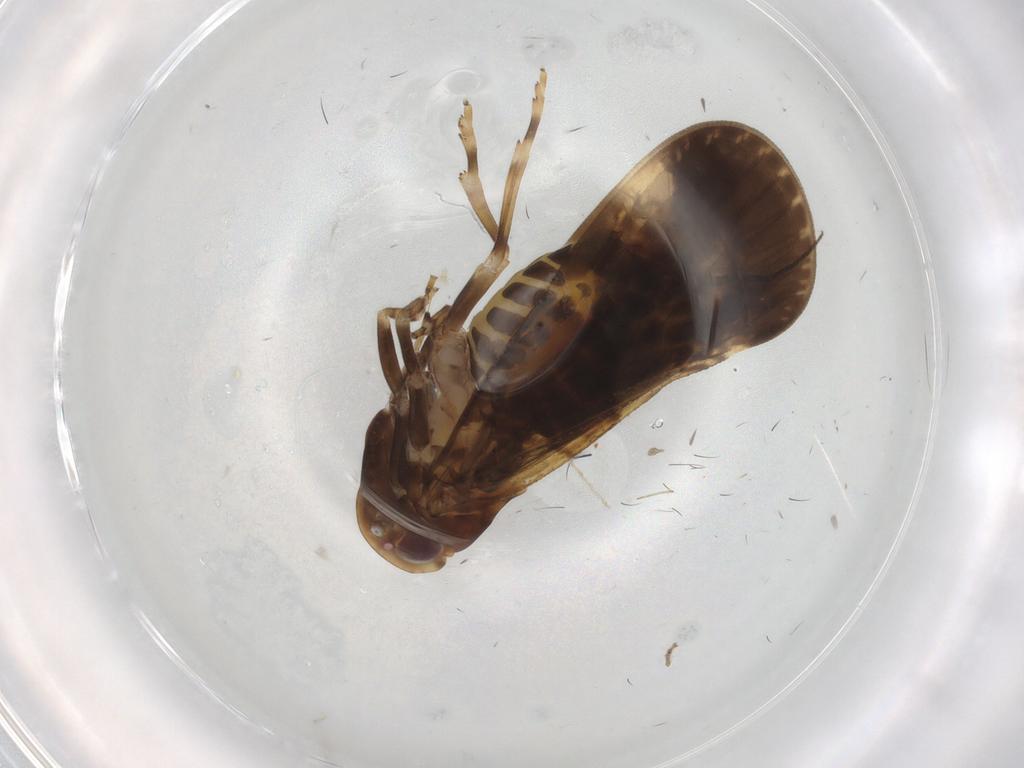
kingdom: Animalia
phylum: Arthropoda
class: Insecta
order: Hemiptera
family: Cixiidae
